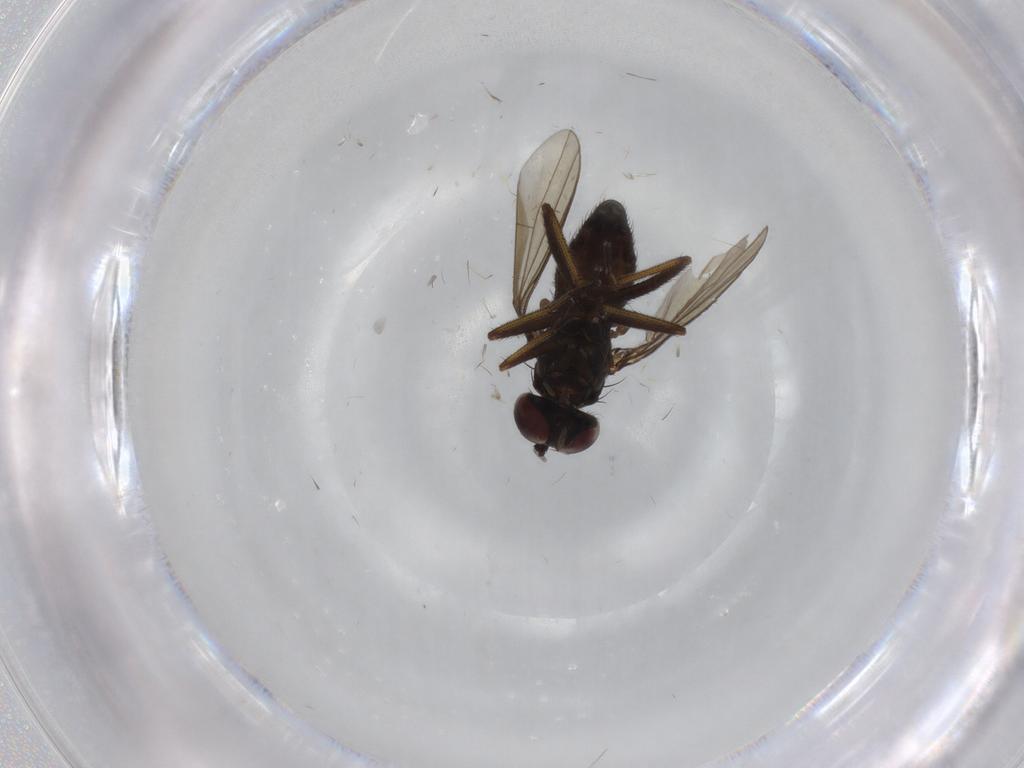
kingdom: Animalia
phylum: Arthropoda
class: Insecta
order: Diptera
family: Dolichopodidae
